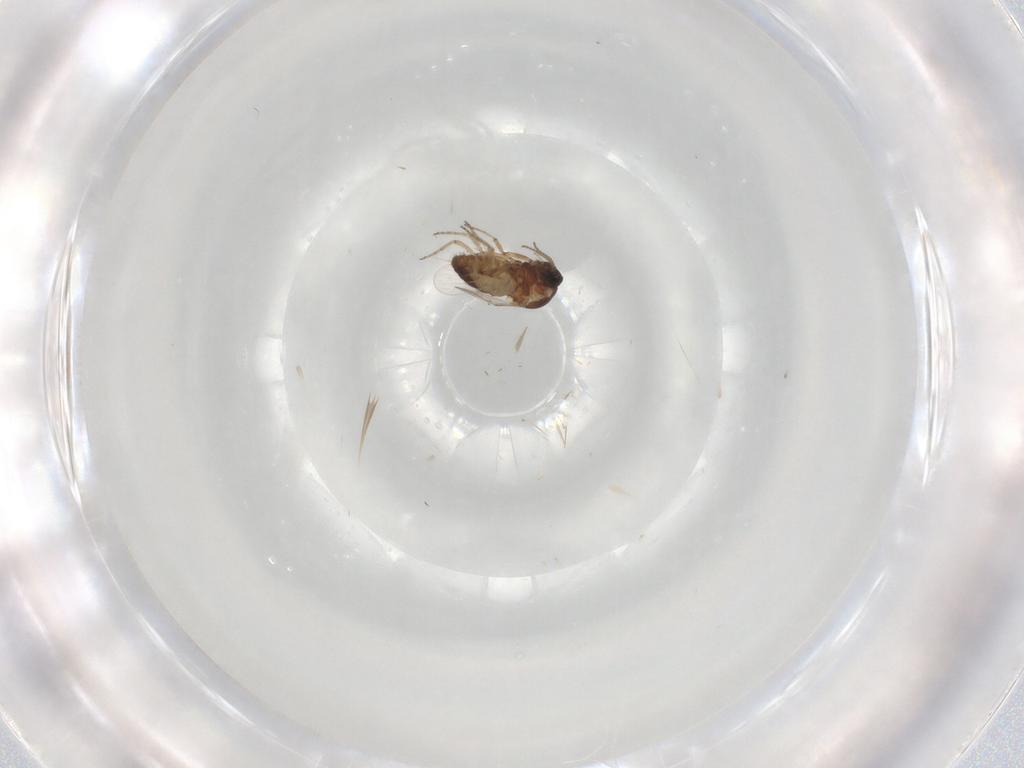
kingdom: Animalia
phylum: Arthropoda
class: Insecta
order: Diptera
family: Ceratopogonidae
